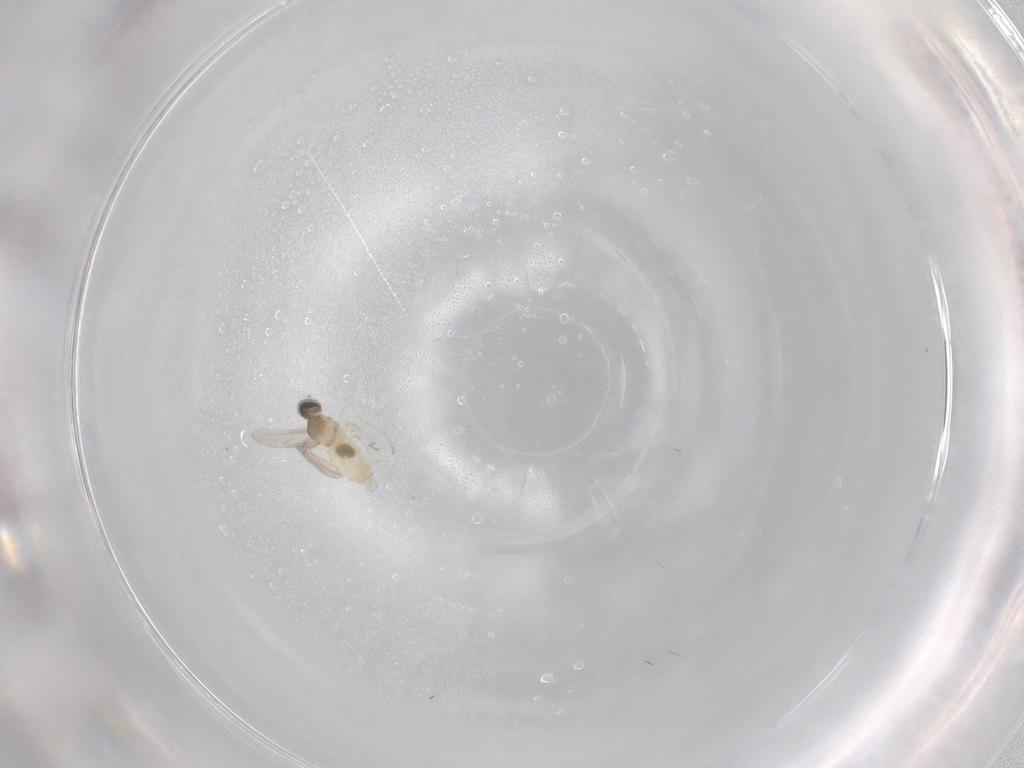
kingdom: Animalia
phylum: Arthropoda
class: Insecta
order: Diptera
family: Cecidomyiidae
